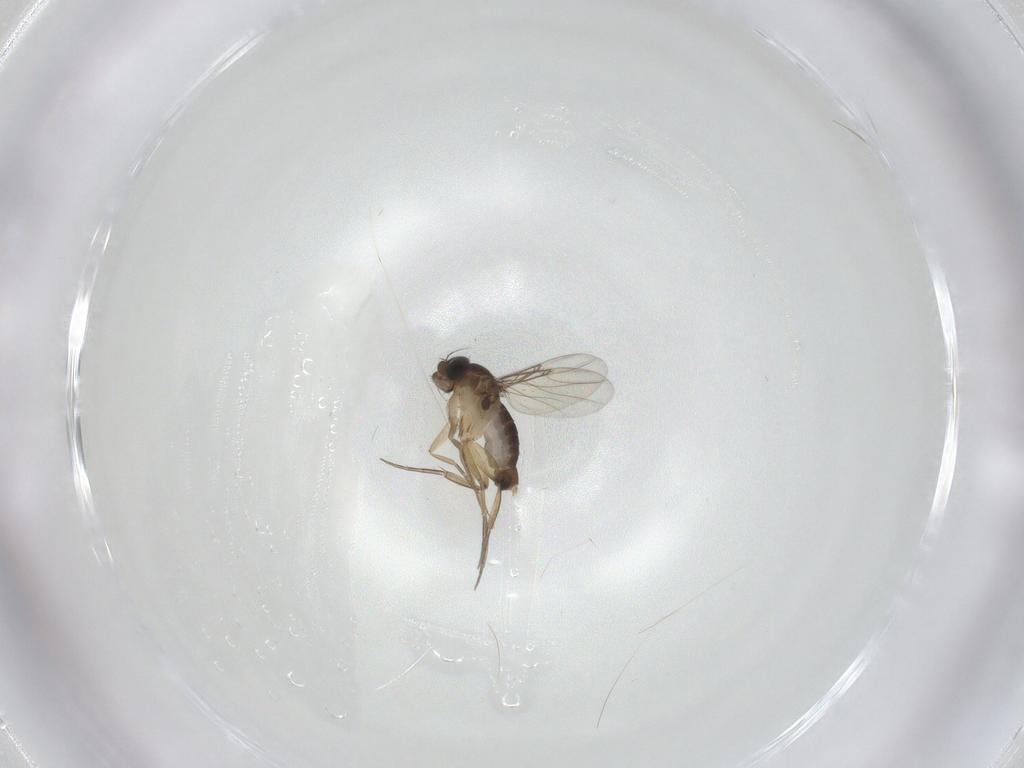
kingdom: Animalia
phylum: Arthropoda
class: Insecta
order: Diptera
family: Phoridae
